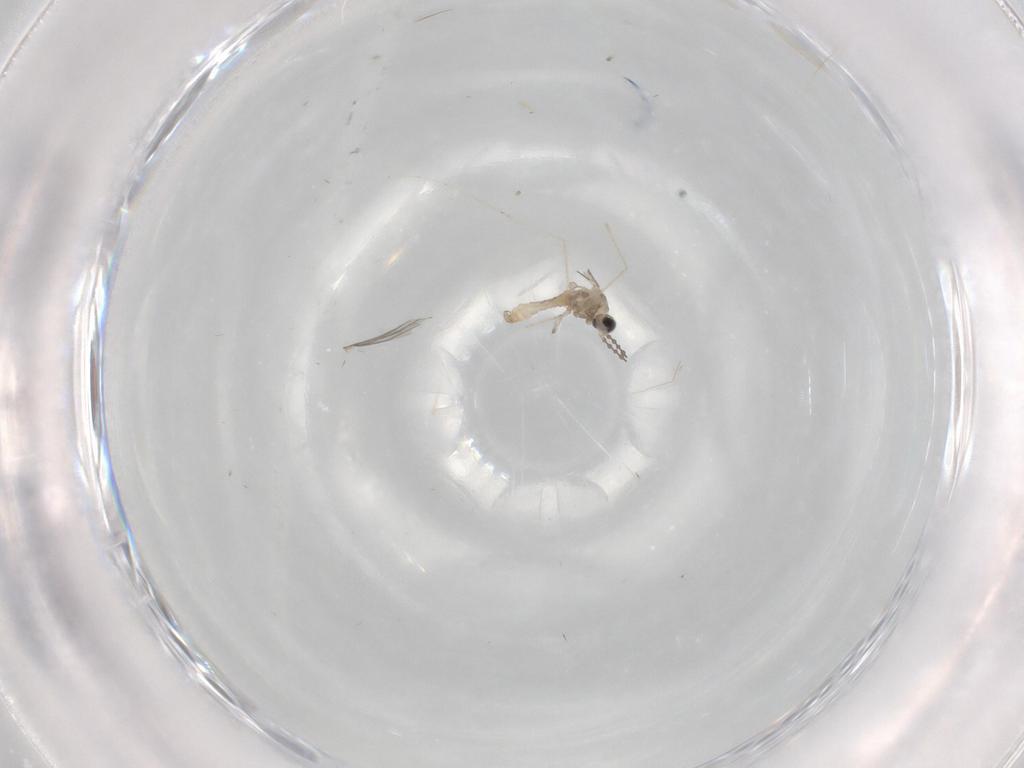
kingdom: Animalia
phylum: Arthropoda
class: Insecta
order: Diptera
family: Cecidomyiidae
